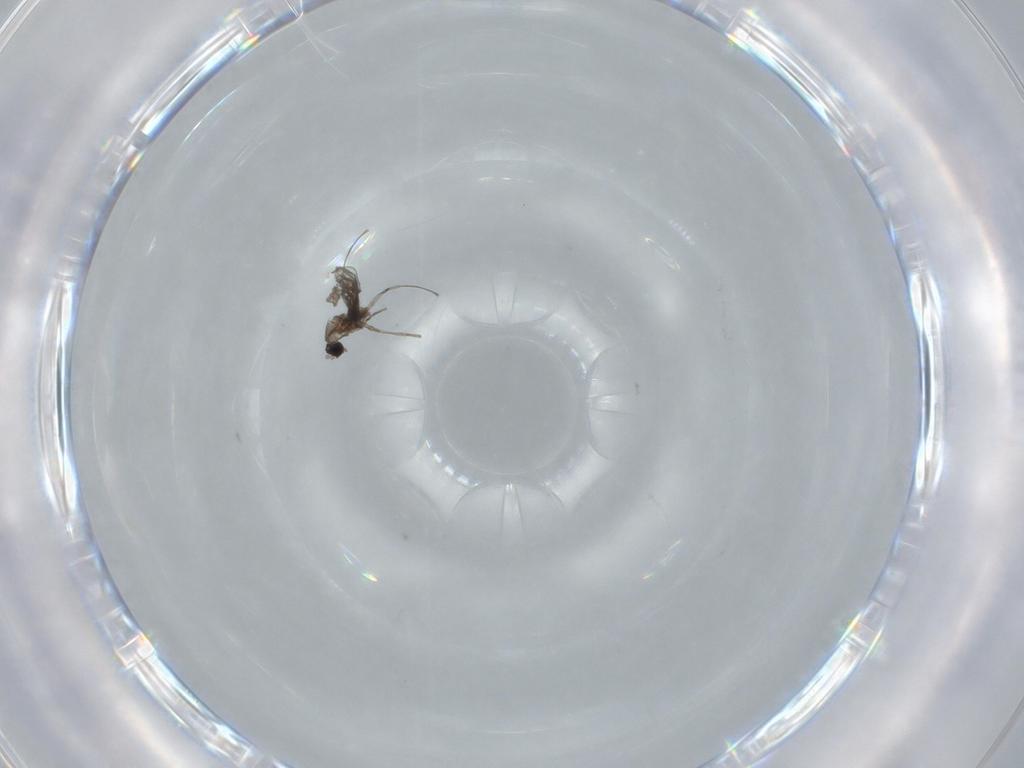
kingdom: Animalia
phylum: Arthropoda
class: Insecta
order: Diptera
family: Cecidomyiidae
